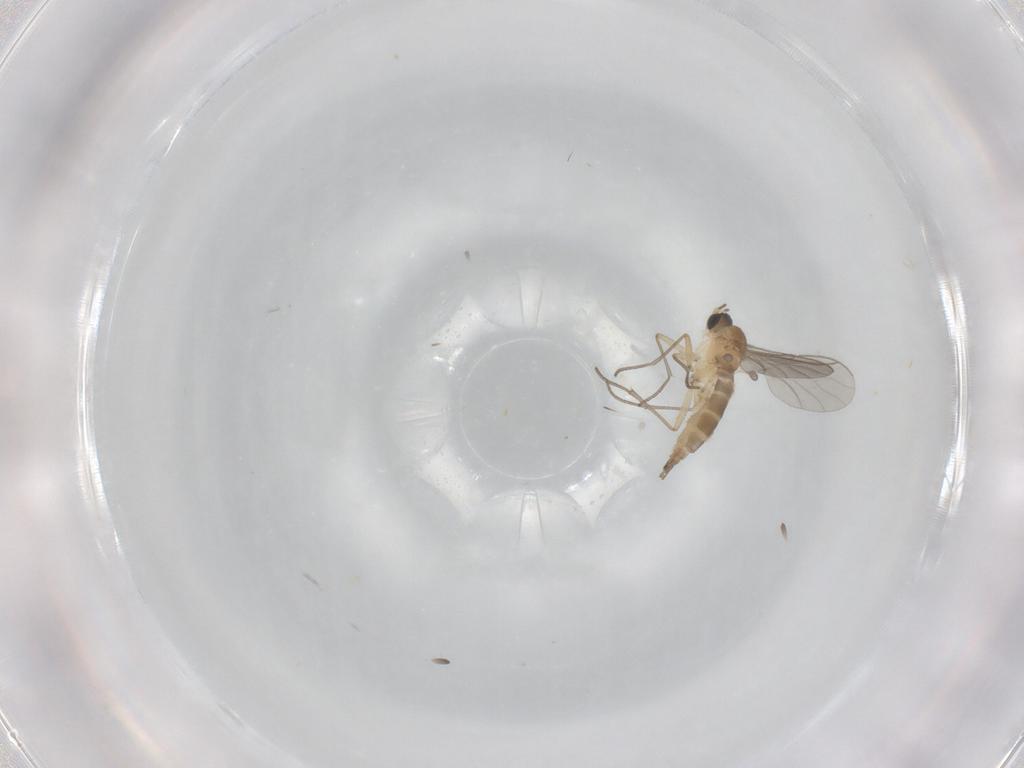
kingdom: Animalia
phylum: Arthropoda
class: Insecta
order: Diptera
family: Sciaridae
